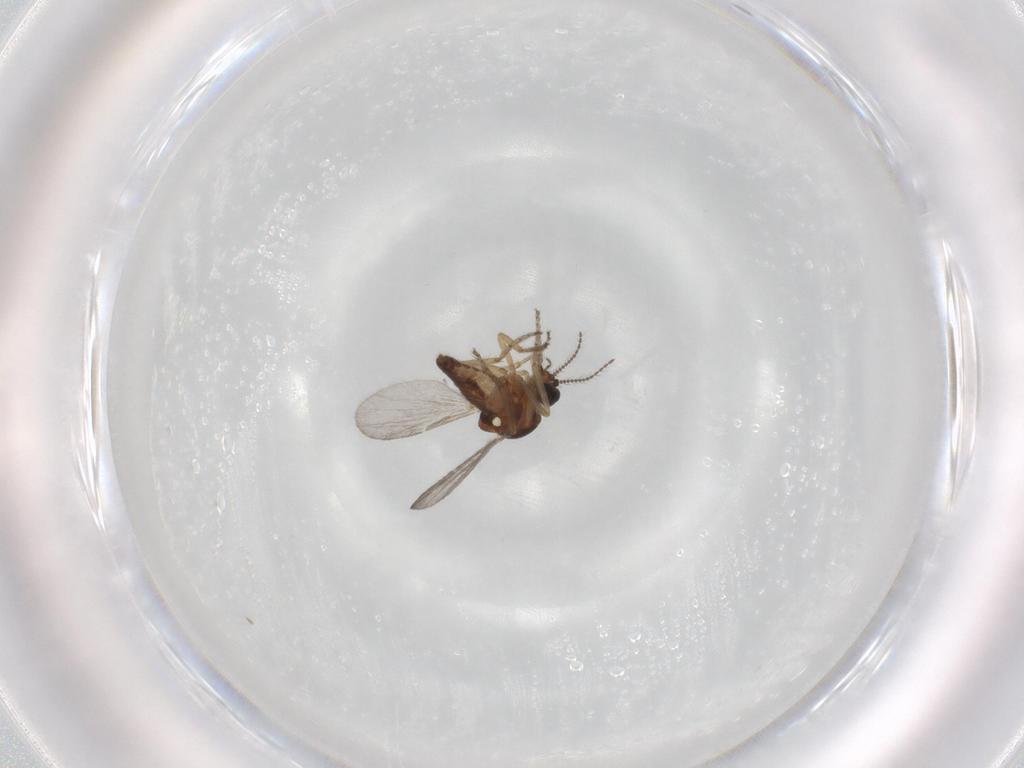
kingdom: Animalia
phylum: Arthropoda
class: Insecta
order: Diptera
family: Ceratopogonidae
